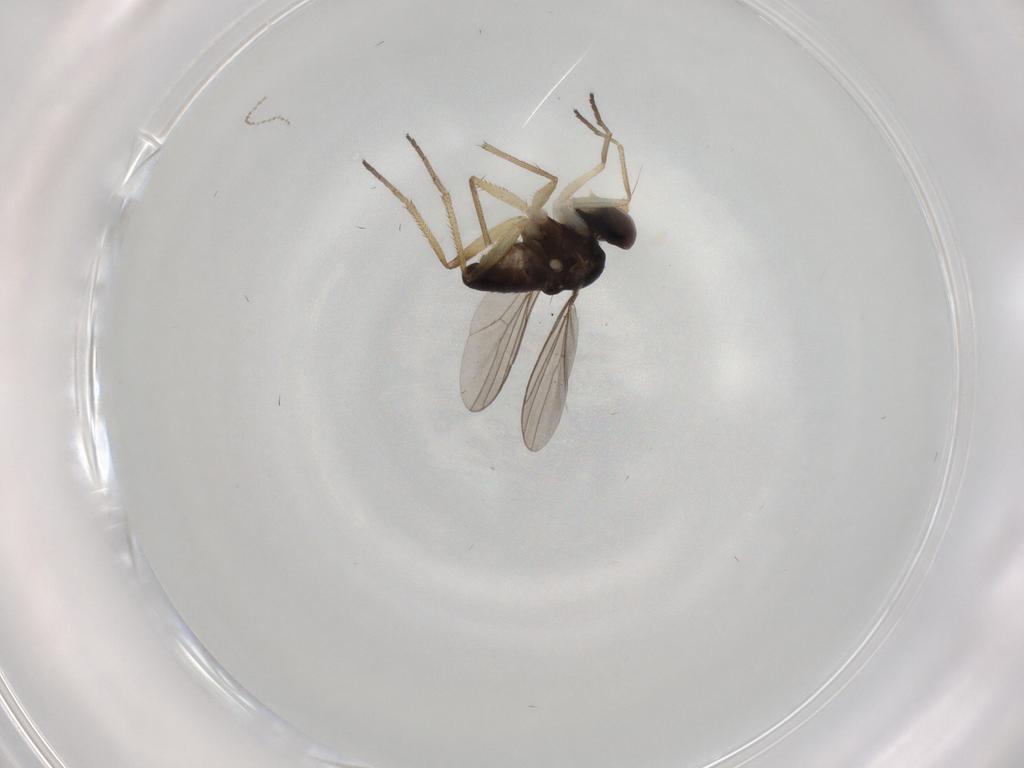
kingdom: Animalia
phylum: Arthropoda
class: Insecta
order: Diptera
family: Dolichopodidae
